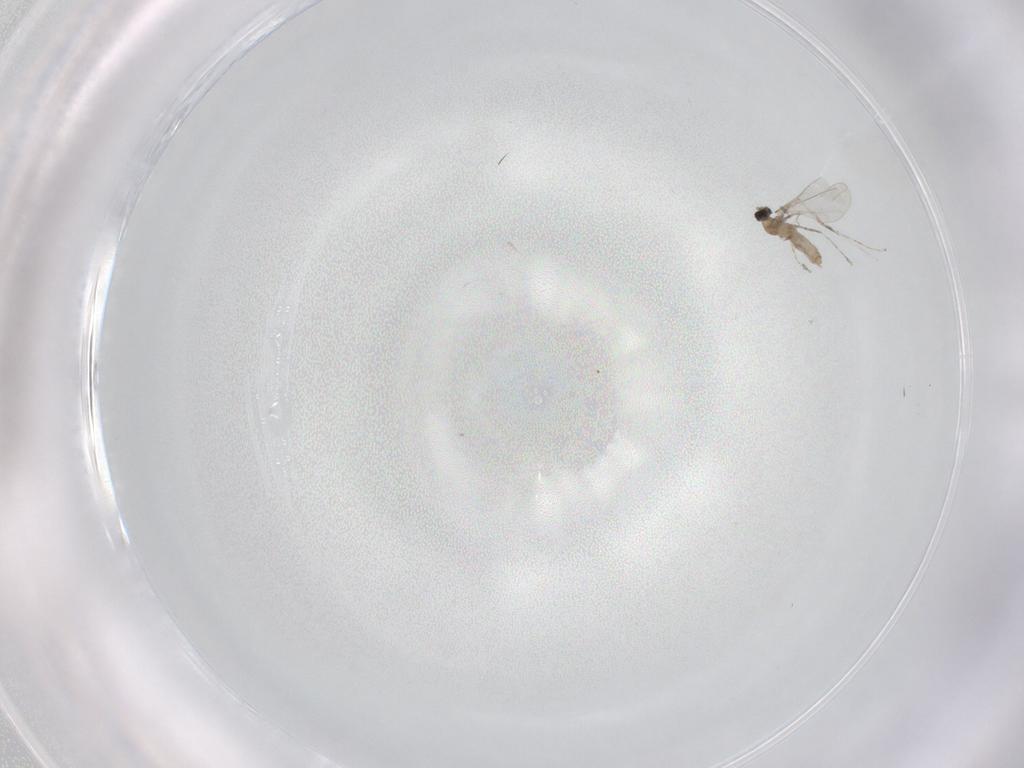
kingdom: Animalia
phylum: Arthropoda
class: Insecta
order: Diptera
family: Cecidomyiidae
